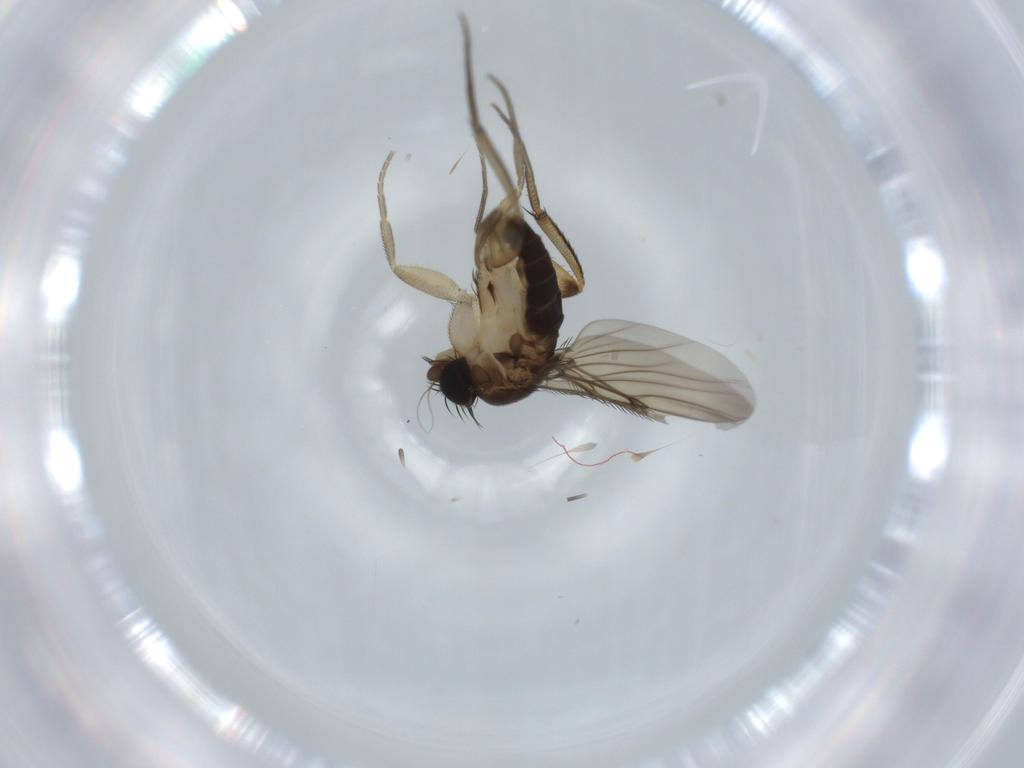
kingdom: Animalia
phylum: Arthropoda
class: Insecta
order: Diptera
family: Phoridae
